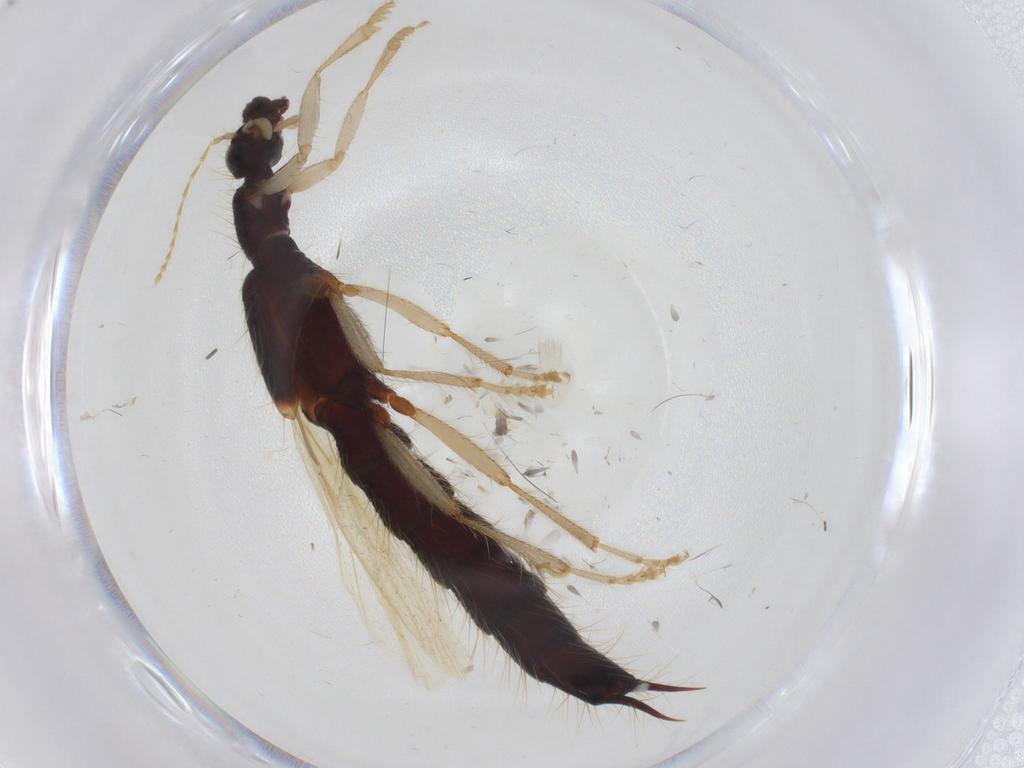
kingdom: Animalia
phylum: Arthropoda
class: Insecta
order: Coleoptera
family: Staphylinidae
